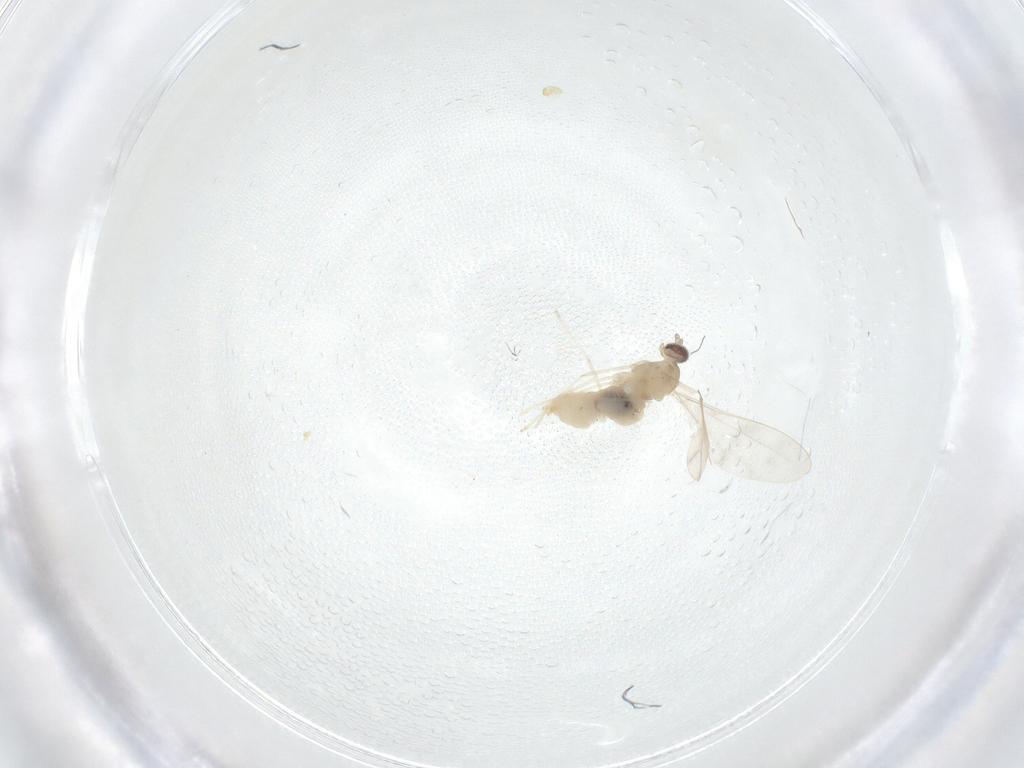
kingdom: Animalia
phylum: Arthropoda
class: Insecta
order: Diptera
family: Cecidomyiidae
